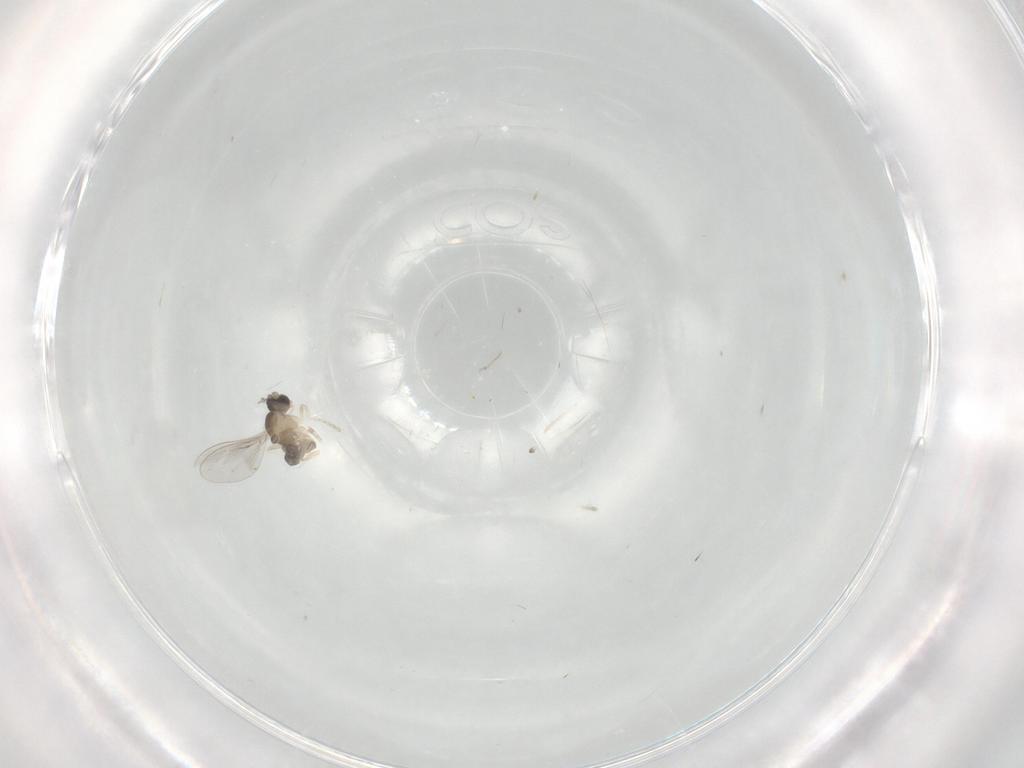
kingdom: Animalia
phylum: Arthropoda
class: Insecta
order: Diptera
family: Cecidomyiidae
